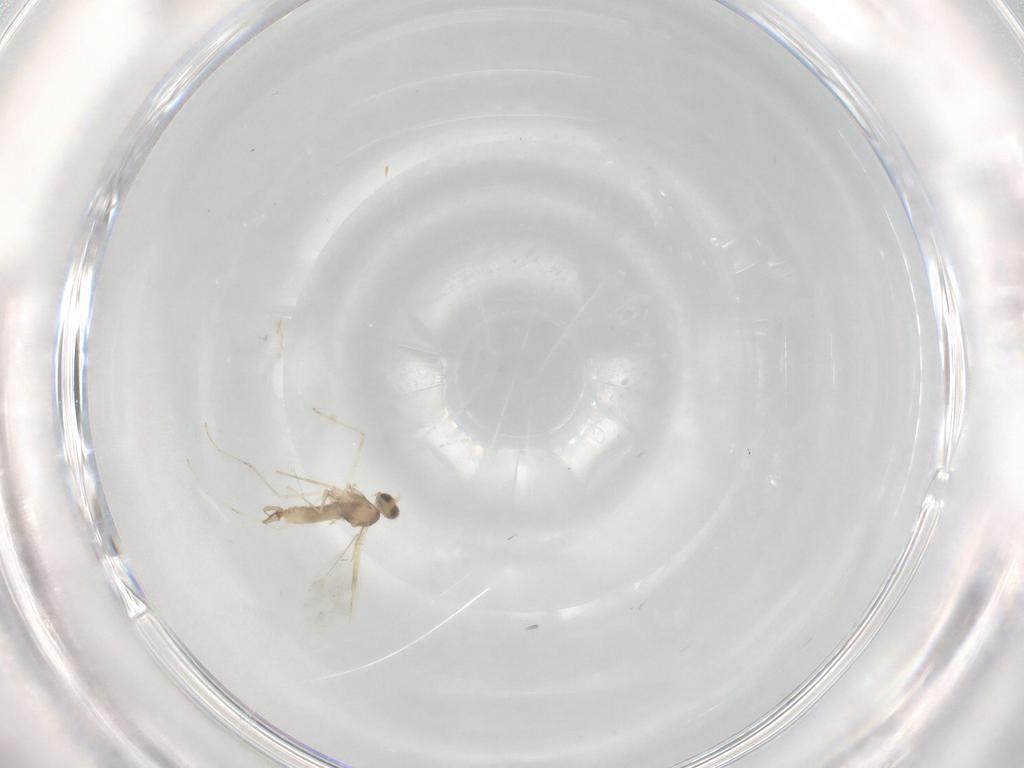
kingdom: Animalia
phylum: Arthropoda
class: Insecta
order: Diptera
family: Cecidomyiidae
